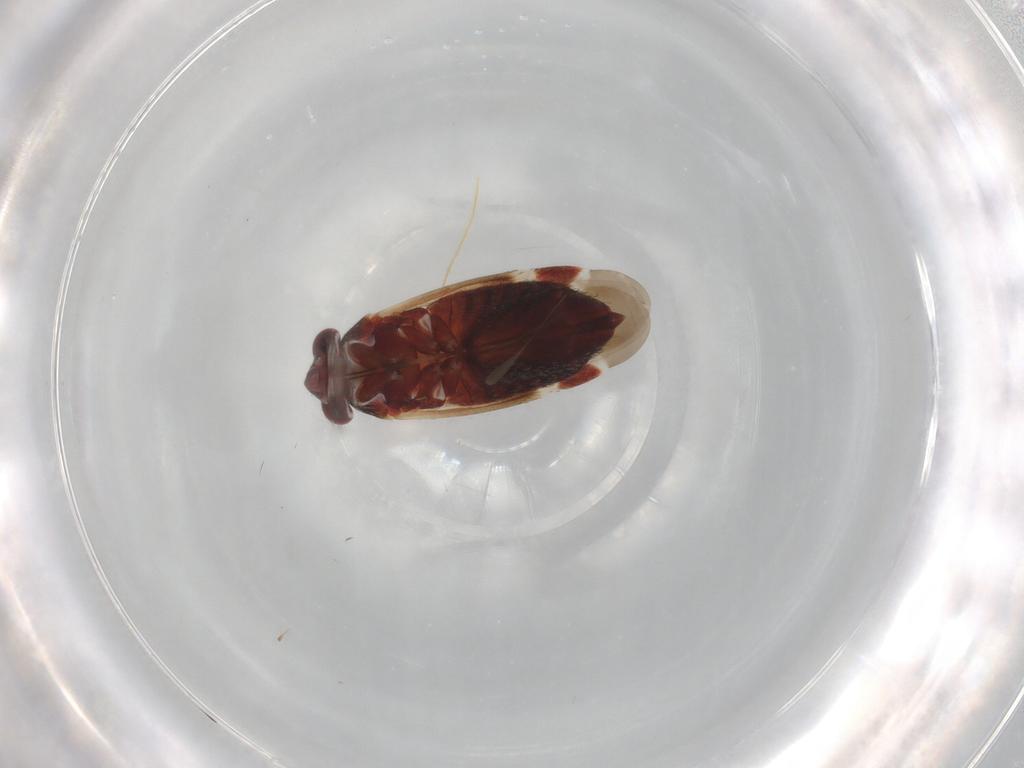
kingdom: Animalia
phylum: Arthropoda
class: Insecta
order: Hemiptera
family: Miridae
